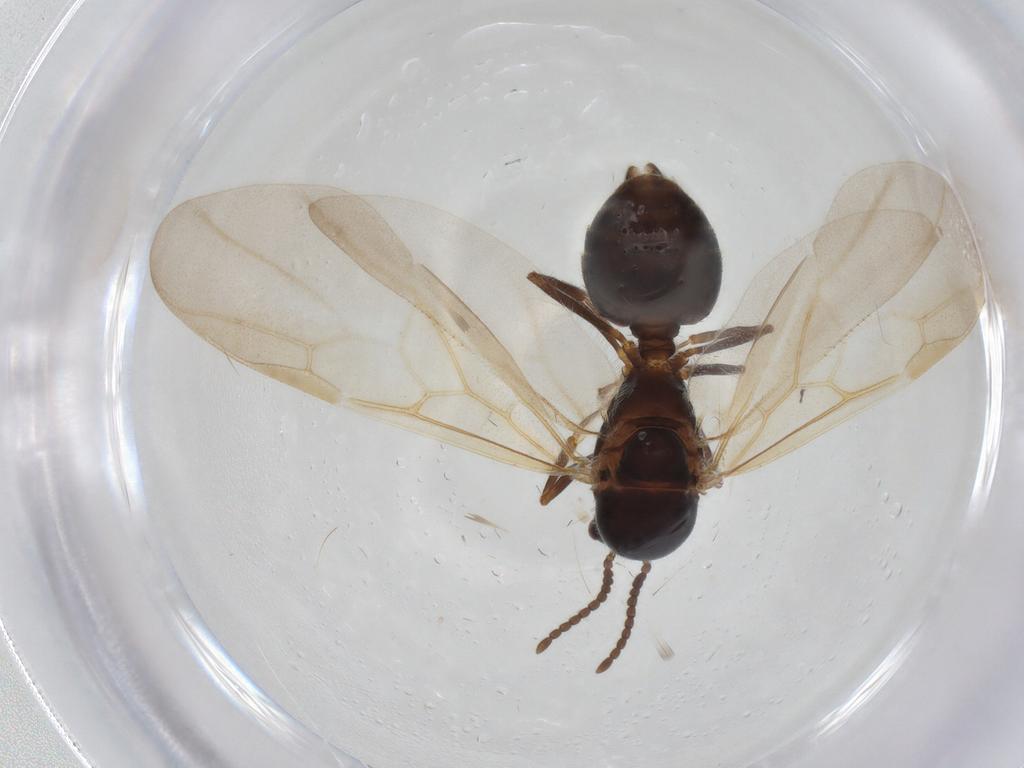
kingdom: Animalia
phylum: Arthropoda
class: Insecta
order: Hymenoptera
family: Formicidae
